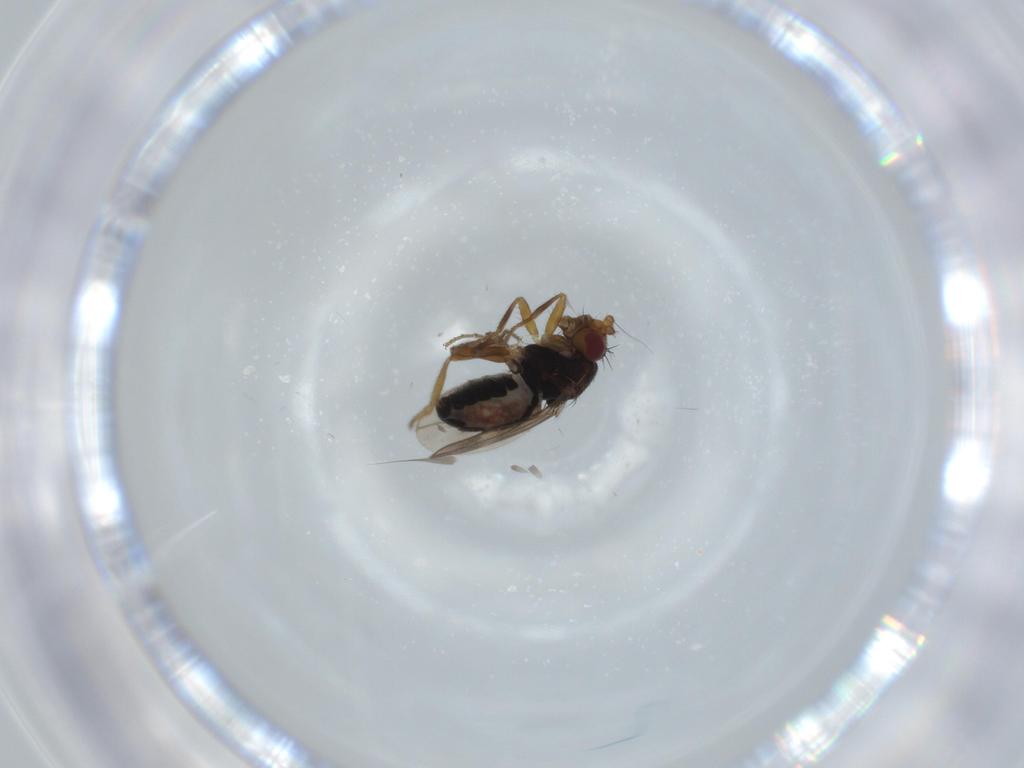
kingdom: Animalia
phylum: Arthropoda
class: Insecta
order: Diptera
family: Sphaeroceridae
